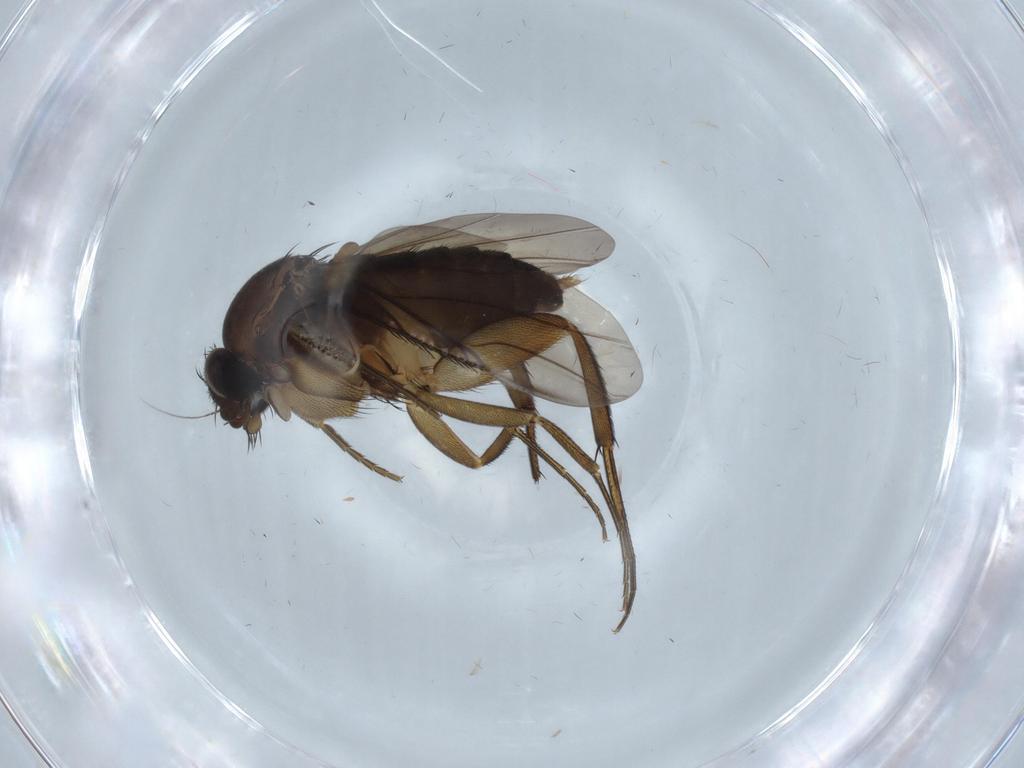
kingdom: Animalia
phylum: Arthropoda
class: Insecta
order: Diptera
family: Phoridae
